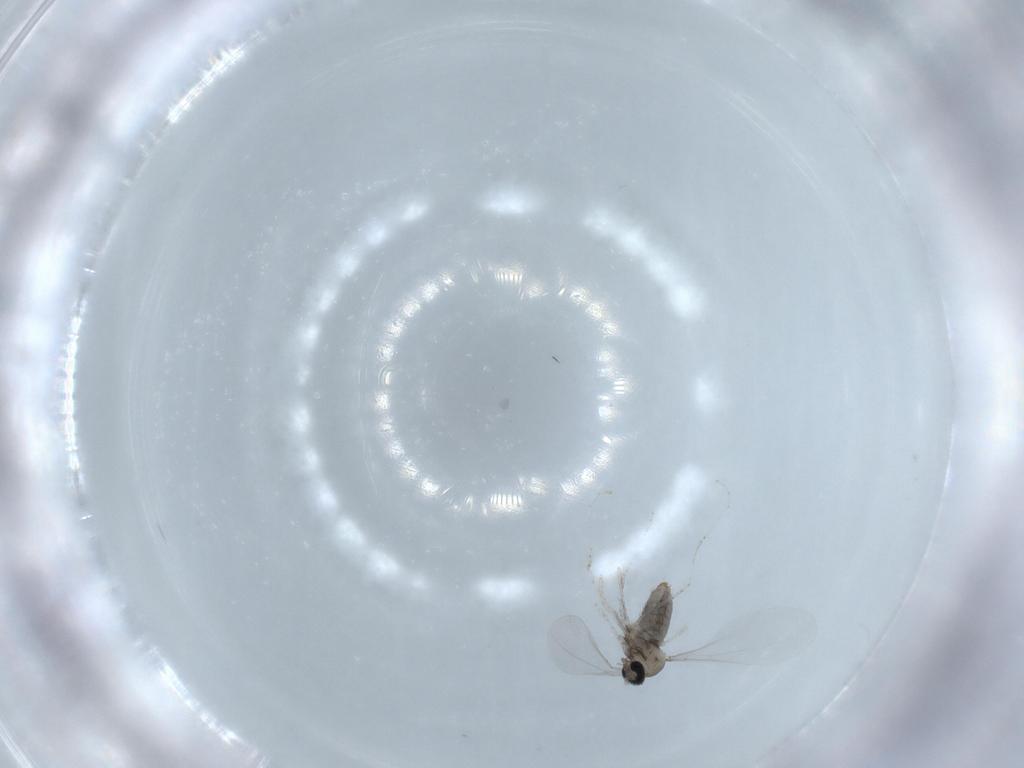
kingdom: Animalia
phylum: Arthropoda
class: Insecta
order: Diptera
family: Cecidomyiidae
